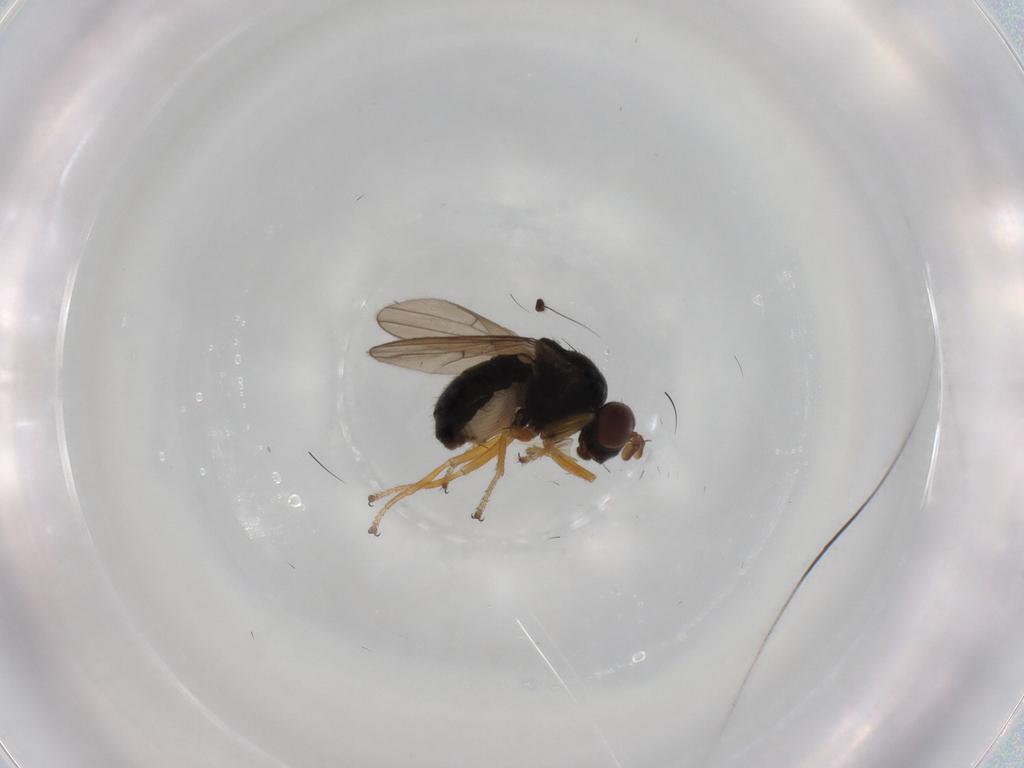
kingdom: Animalia
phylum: Arthropoda
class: Insecta
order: Diptera
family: Ephydridae
